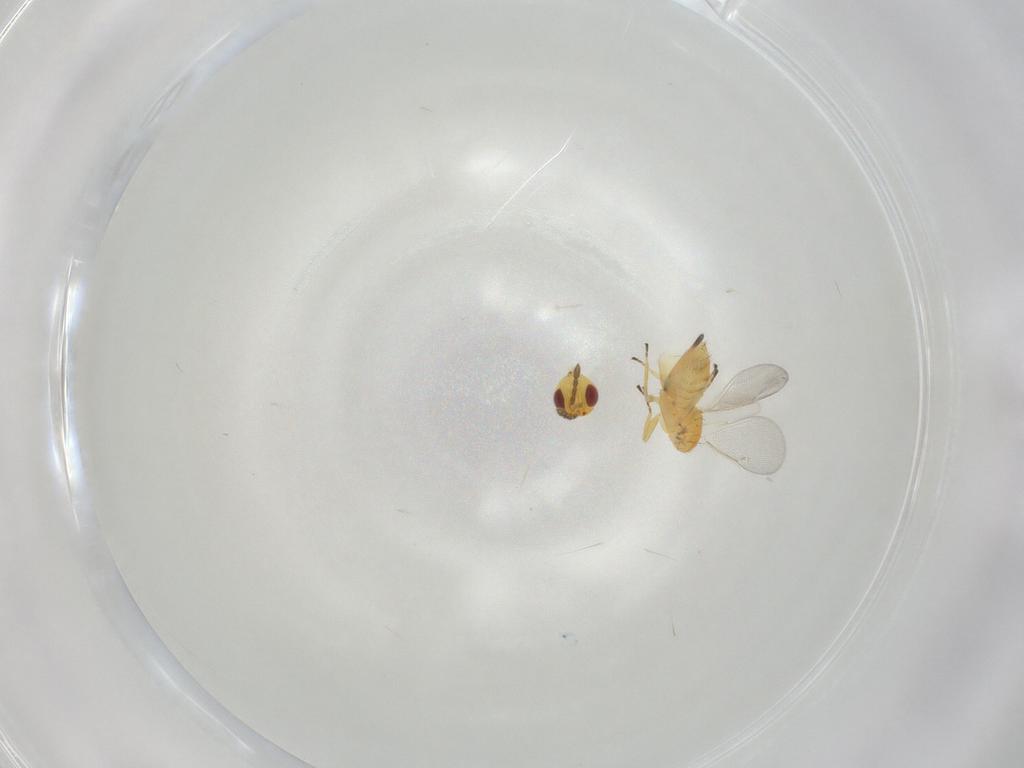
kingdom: Animalia
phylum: Arthropoda
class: Insecta
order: Hymenoptera
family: Eulophidae
